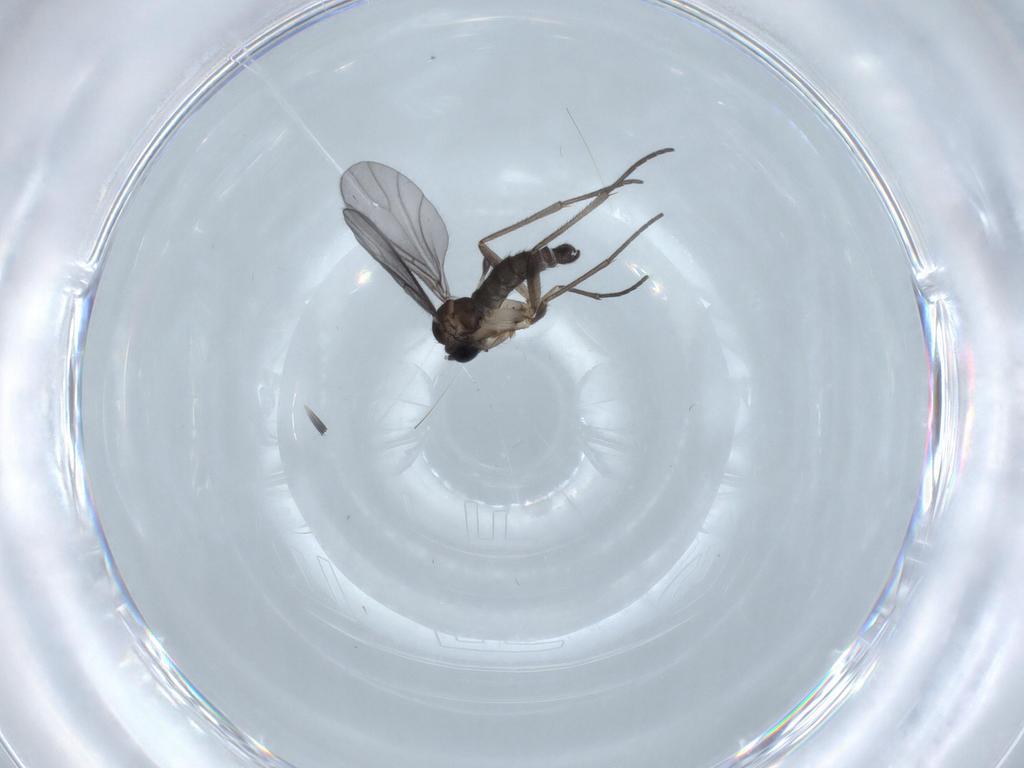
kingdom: Animalia
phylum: Arthropoda
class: Insecta
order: Diptera
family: Sciaridae
